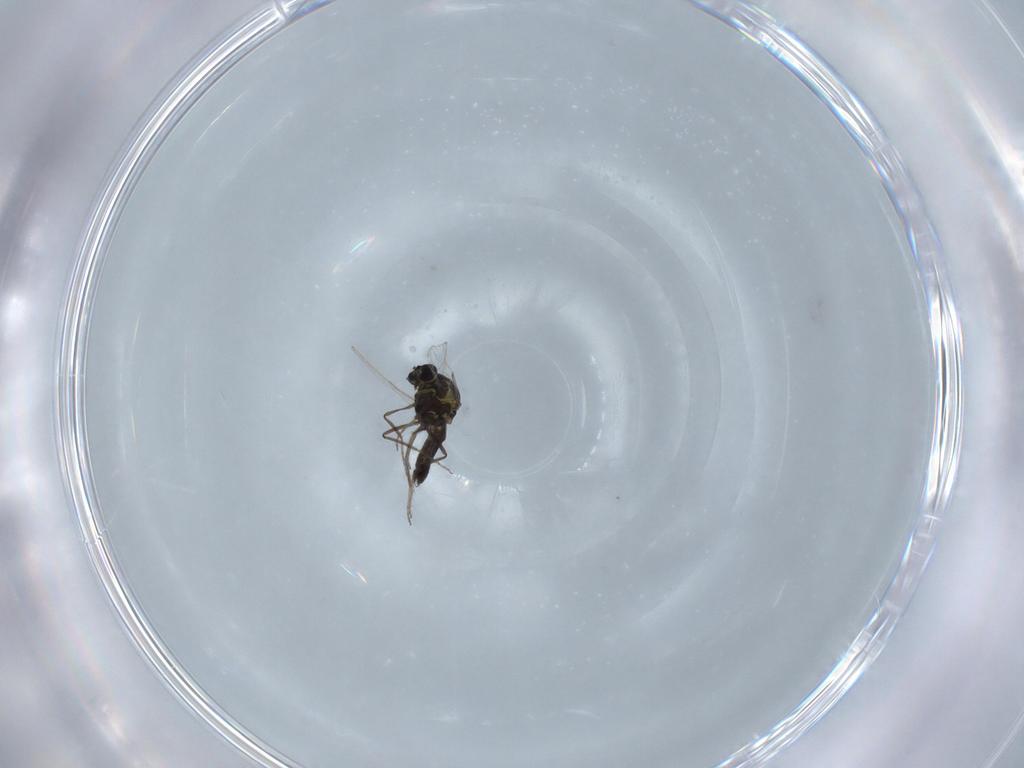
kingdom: Animalia
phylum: Arthropoda
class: Insecta
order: Diptera
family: Ceratopogonidae
